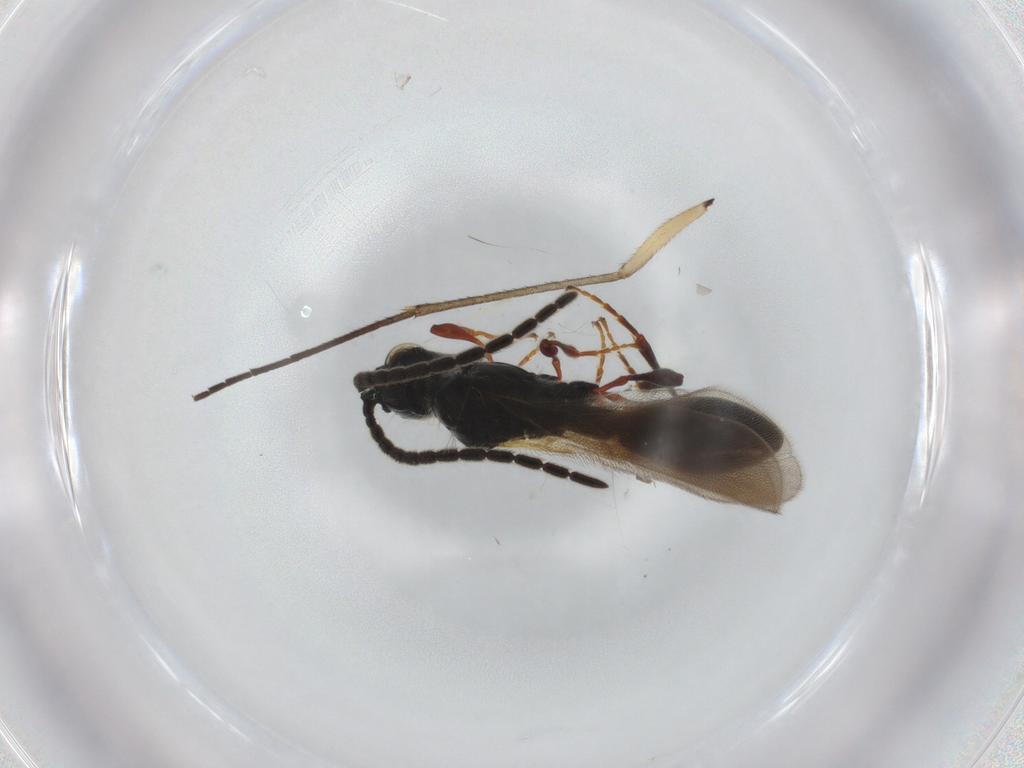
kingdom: Animalia
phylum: Arthropoda
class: Insecta
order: Hymenoptera
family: Diapriidae
